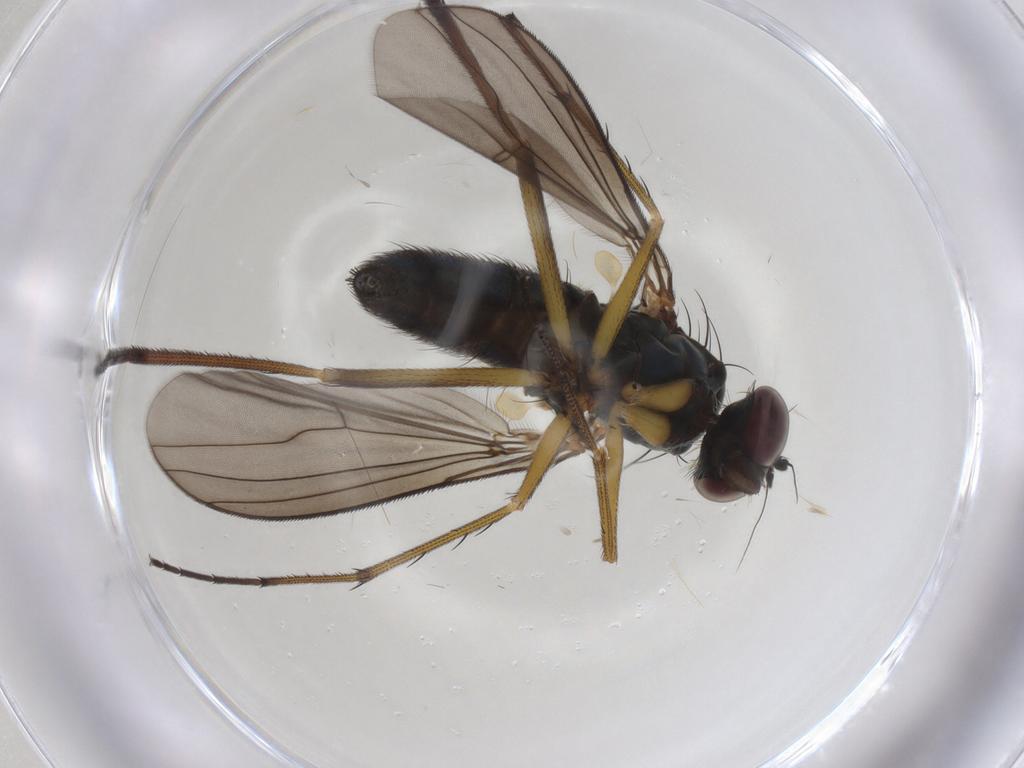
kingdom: Animalia
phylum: Arthropoda
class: Insecta
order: Diptera
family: Dolichopodidae
